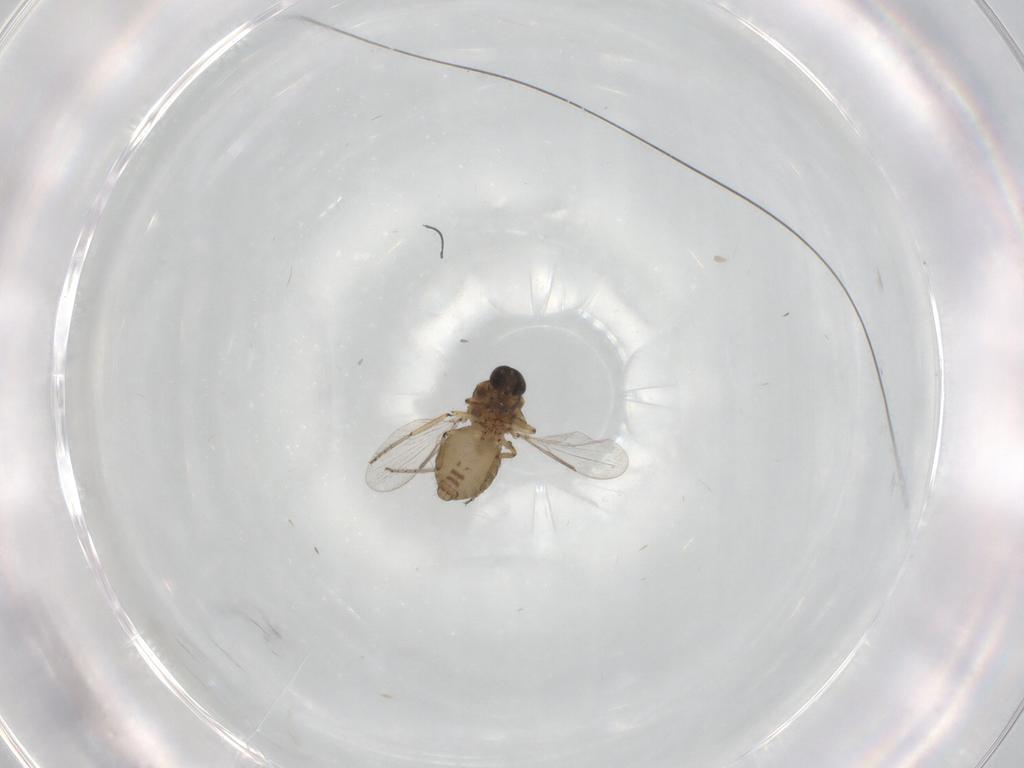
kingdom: Animalia
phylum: Arthropoda
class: Insecta
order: Diptera
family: Ceratopogonidae
